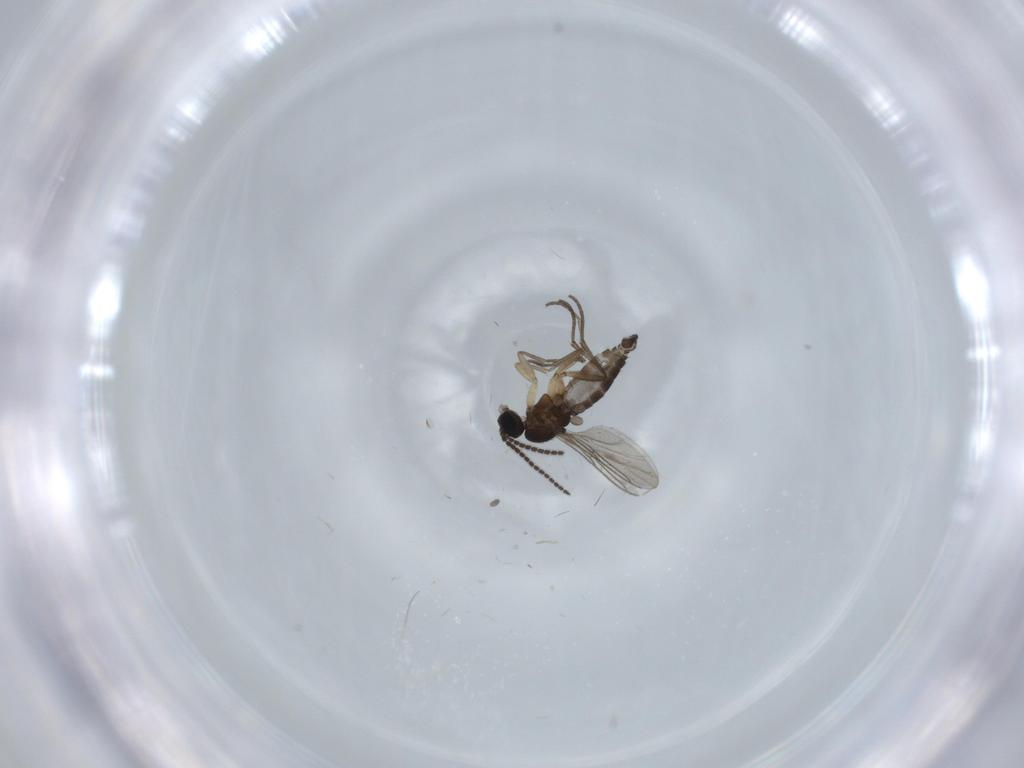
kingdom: Animalia
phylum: Arthropoda
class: Insecta
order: Diptera
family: Sciaridae
